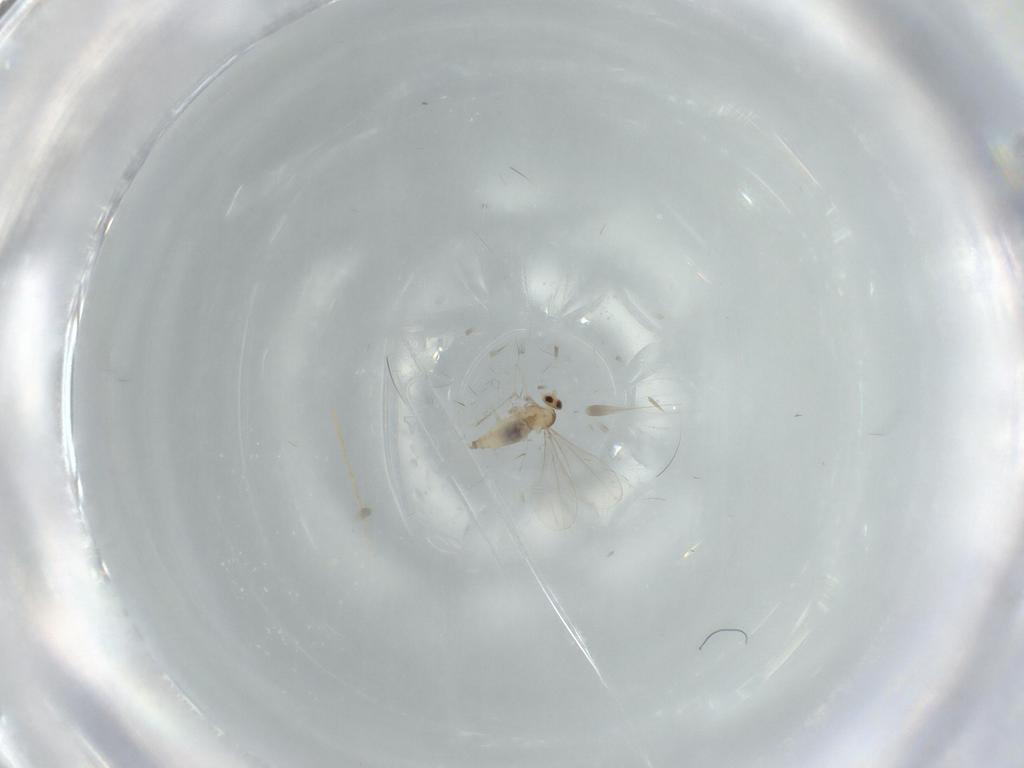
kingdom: Animalia
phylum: Arthropoda
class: Insecta
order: Diptera
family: Cecidomyiidae
